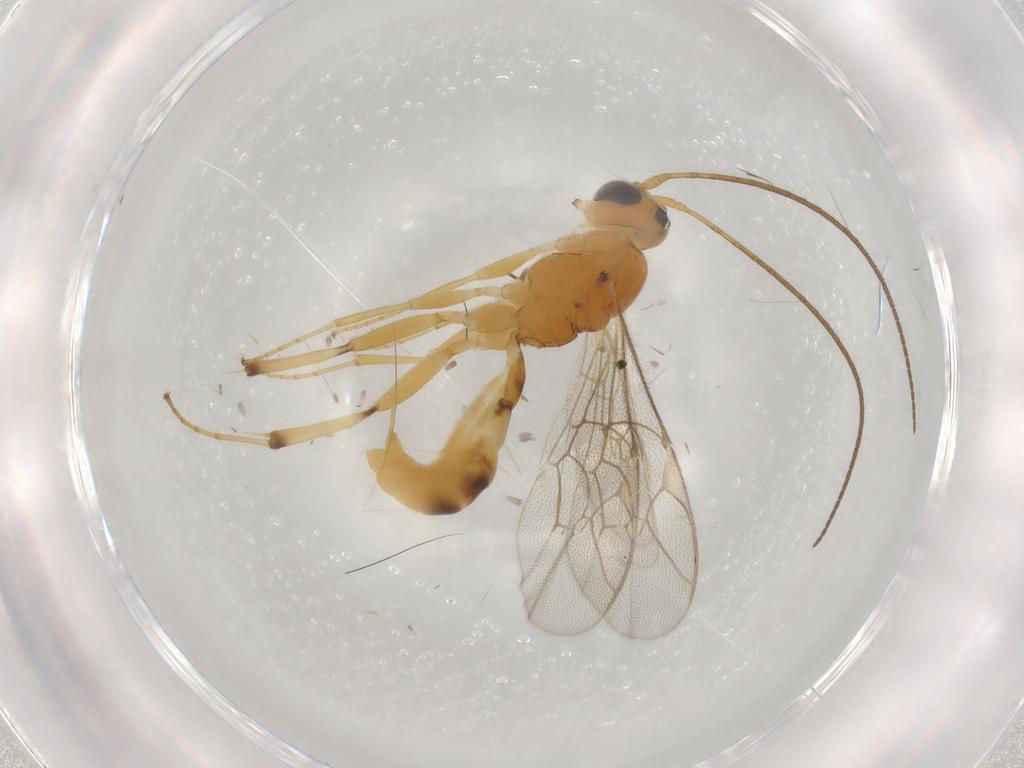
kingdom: Animalia
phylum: Arthropoda
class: Insecta
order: Hymenoptera
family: Ichneumonidae
